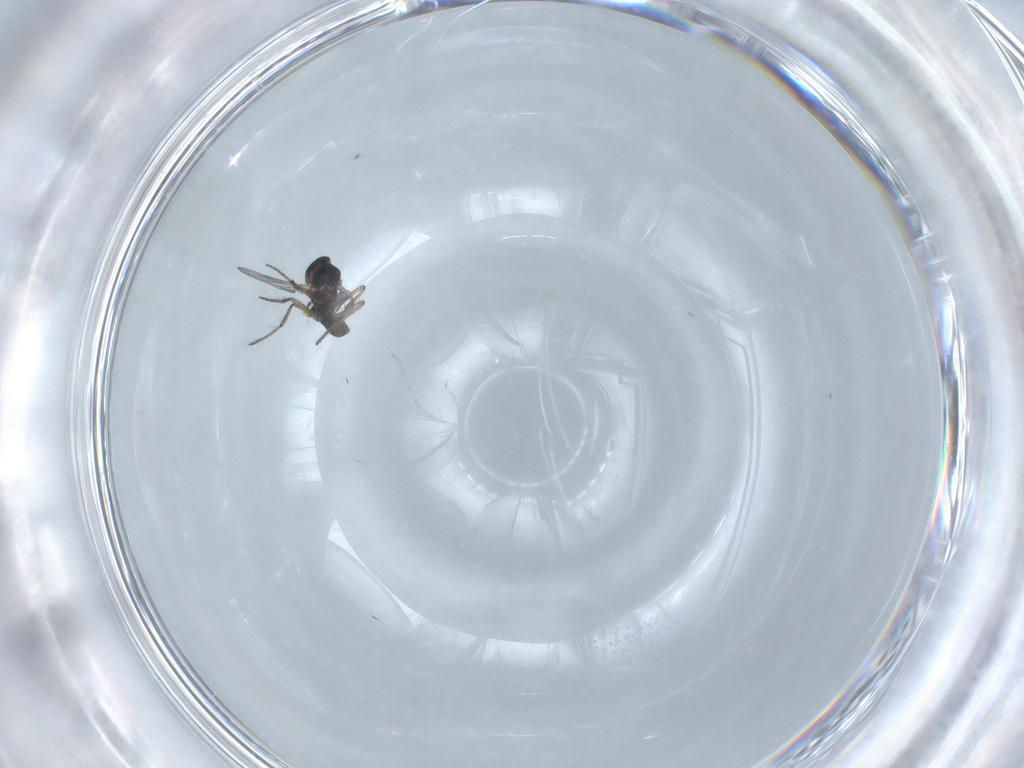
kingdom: Animalia
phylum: Arthropoda
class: Insecta
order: Diptera
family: Ceratopogonidae
